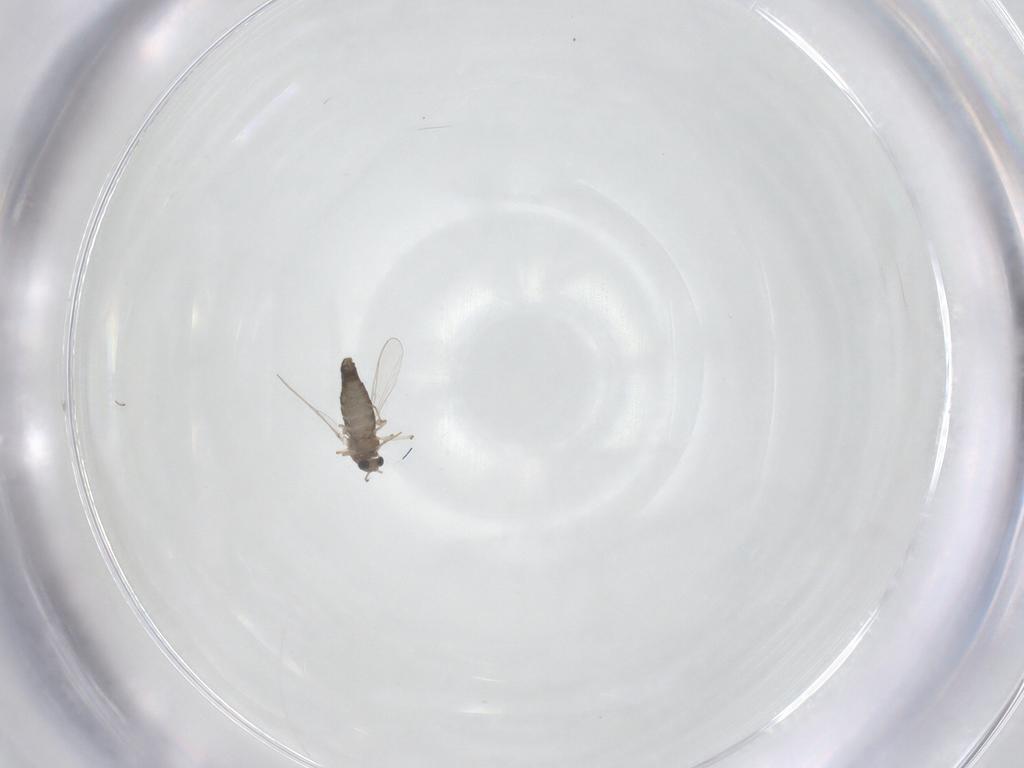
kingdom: Animalia
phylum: Arthropoda
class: Insecta
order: Diptera
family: Chironomidae
